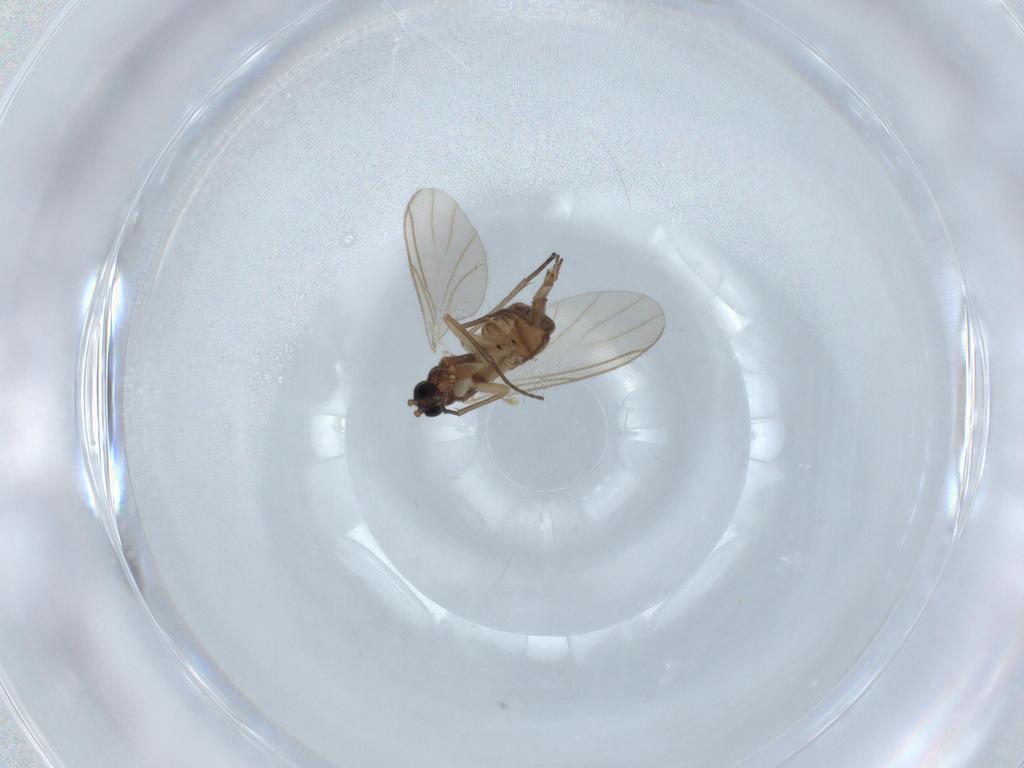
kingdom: Animalia
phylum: Arthropoda
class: Insecta
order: Diptera
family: Sciaridae
